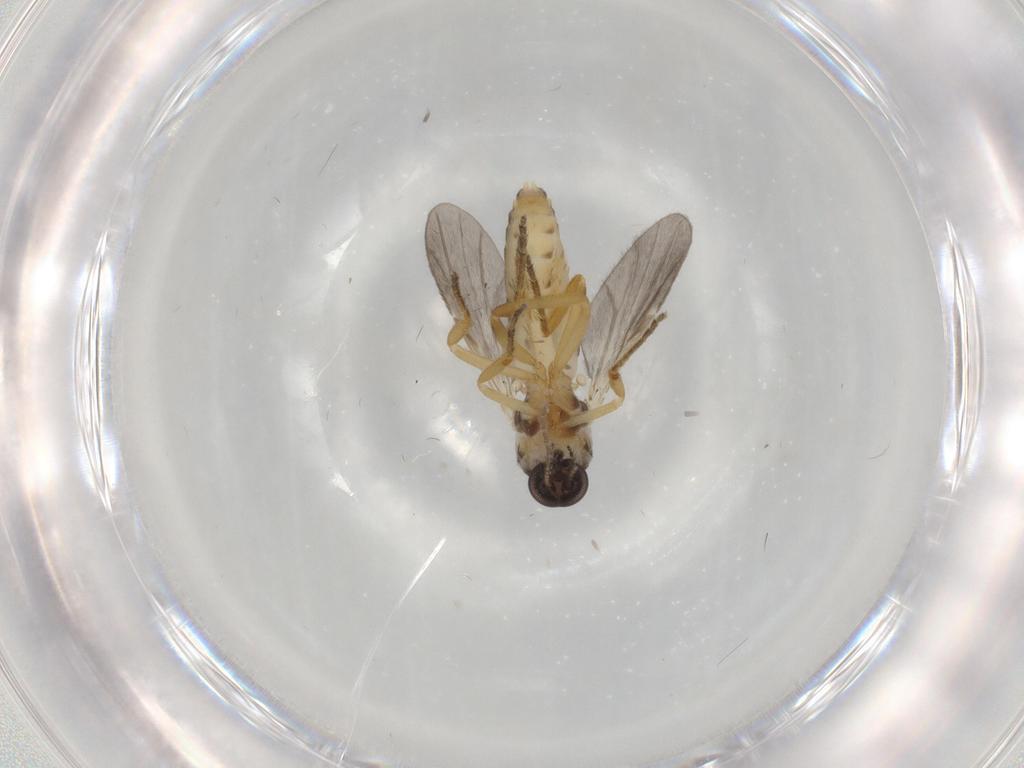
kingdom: Animalia
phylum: Arthropoda
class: Insecta
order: Diptera
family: Ceratopogonidae
